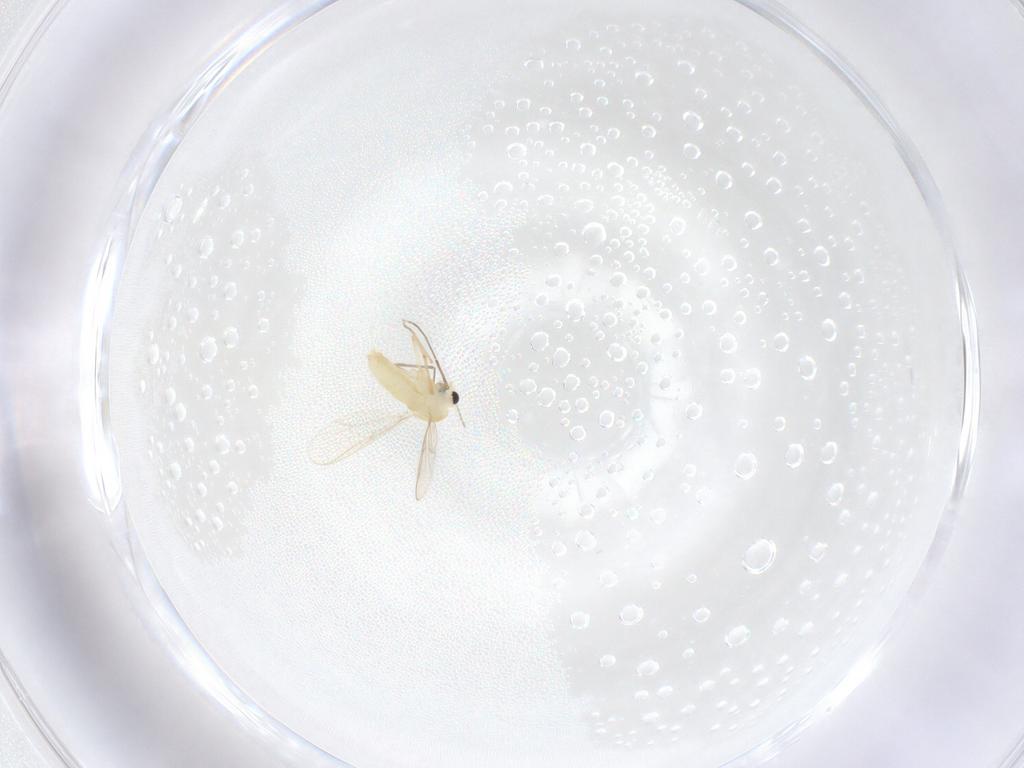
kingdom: Animalia
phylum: Arthropoda
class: Insecta
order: Diptera
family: Chironomidae
